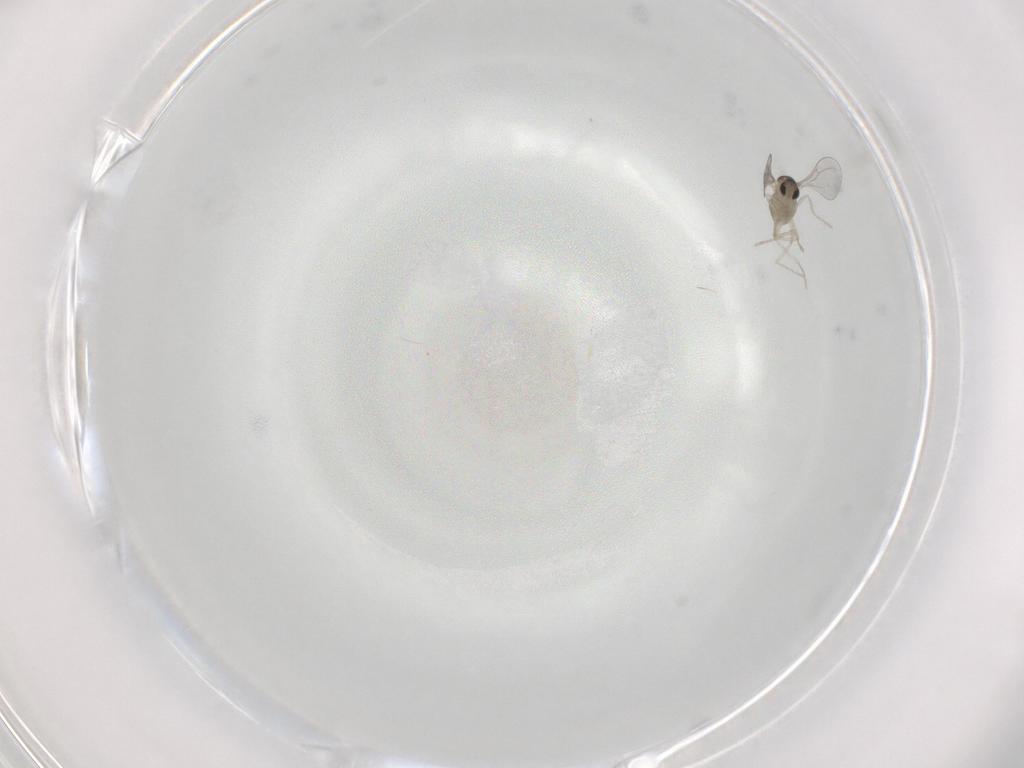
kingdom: Animalia
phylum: Arthropoda
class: Insecta
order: Diptera
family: Cecidomyiidae
